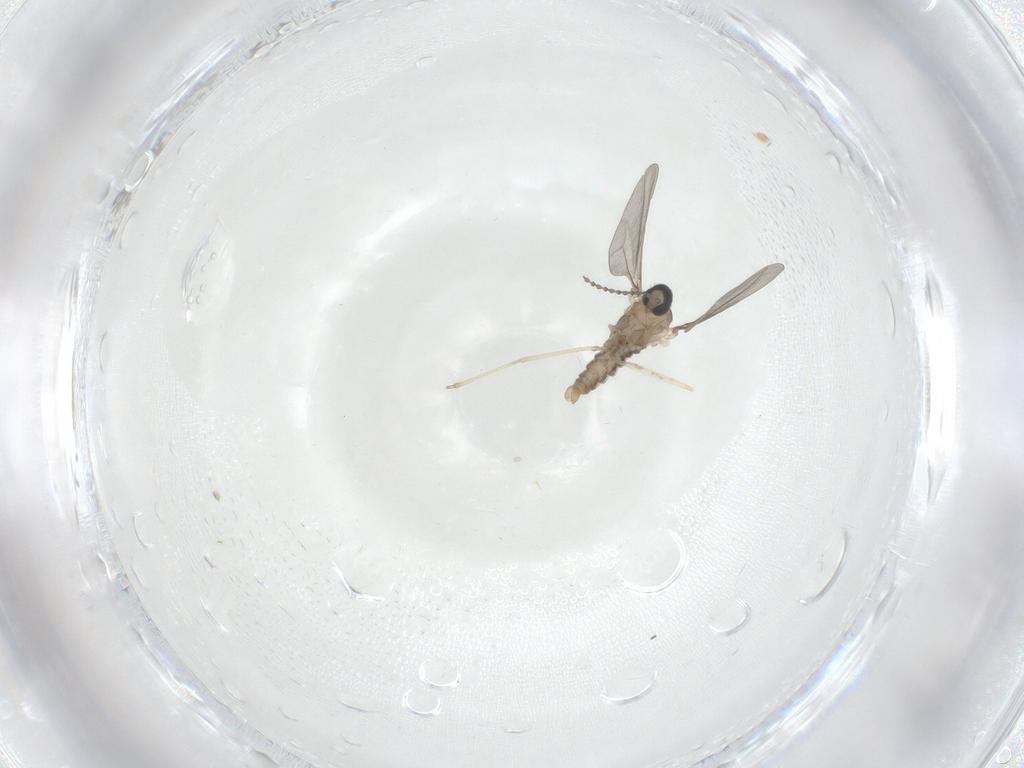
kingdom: Animalia
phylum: Arthropoda
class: Insecta
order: Diptera
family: Cecidomyiidae
